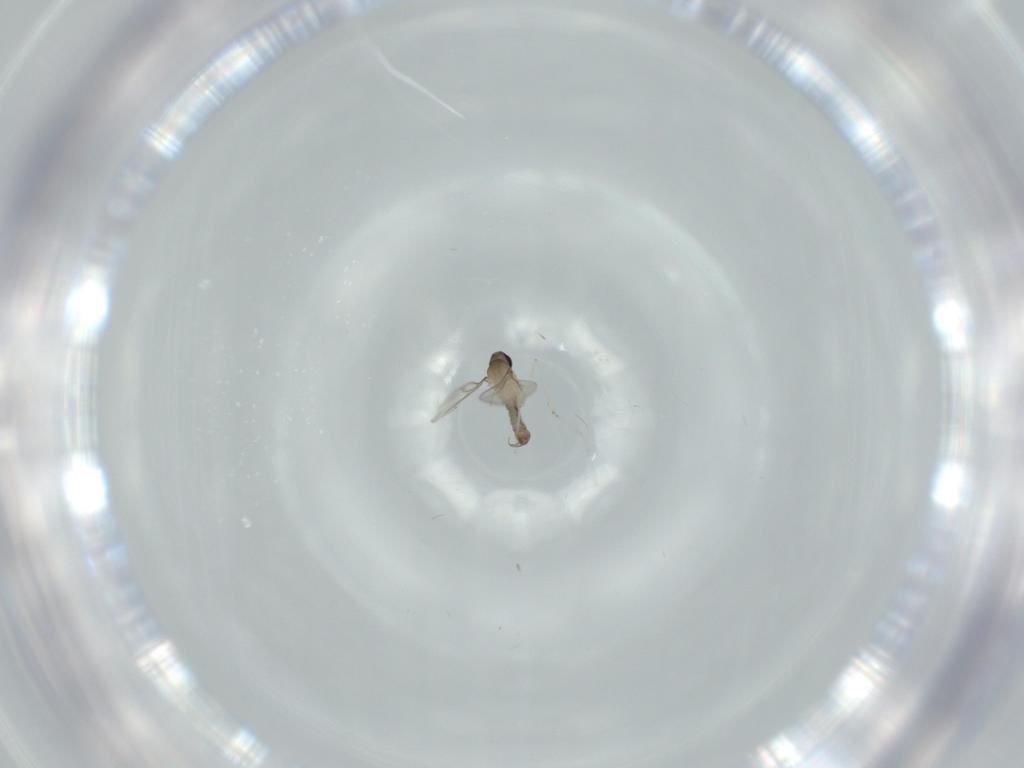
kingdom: Animalia
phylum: Arthropoda
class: Insecta
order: Diptera
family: Cecidomyiidae
